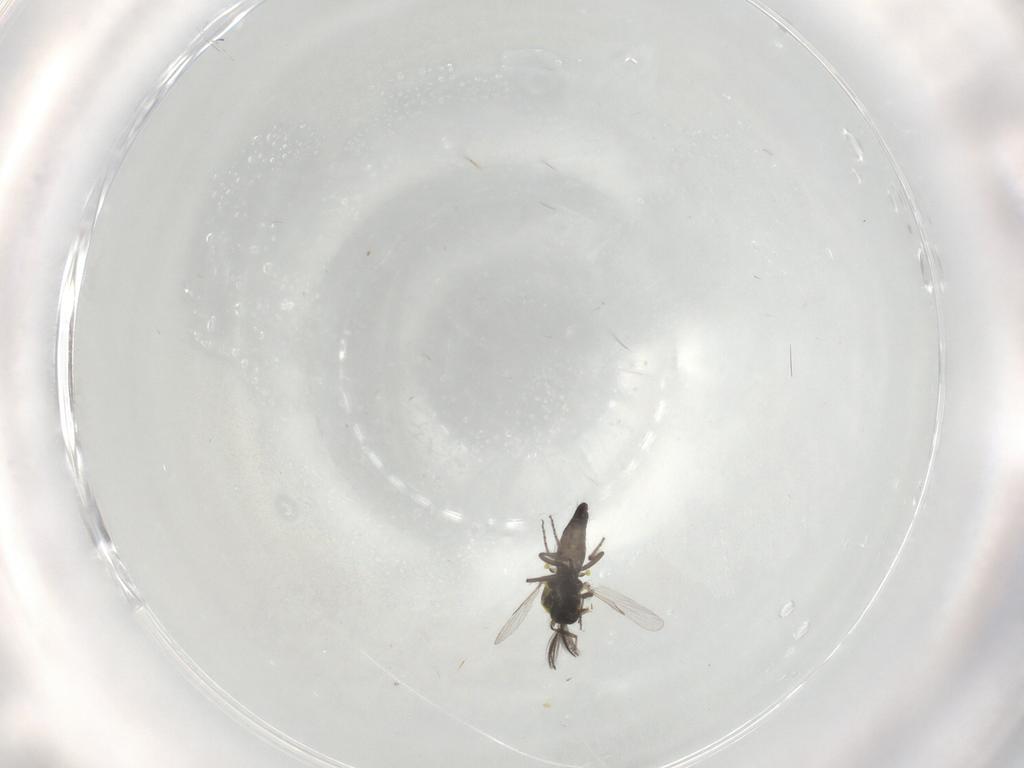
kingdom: Animalia
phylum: Arthropoda
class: Insecta
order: Diptera
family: Ceratopogonidae
